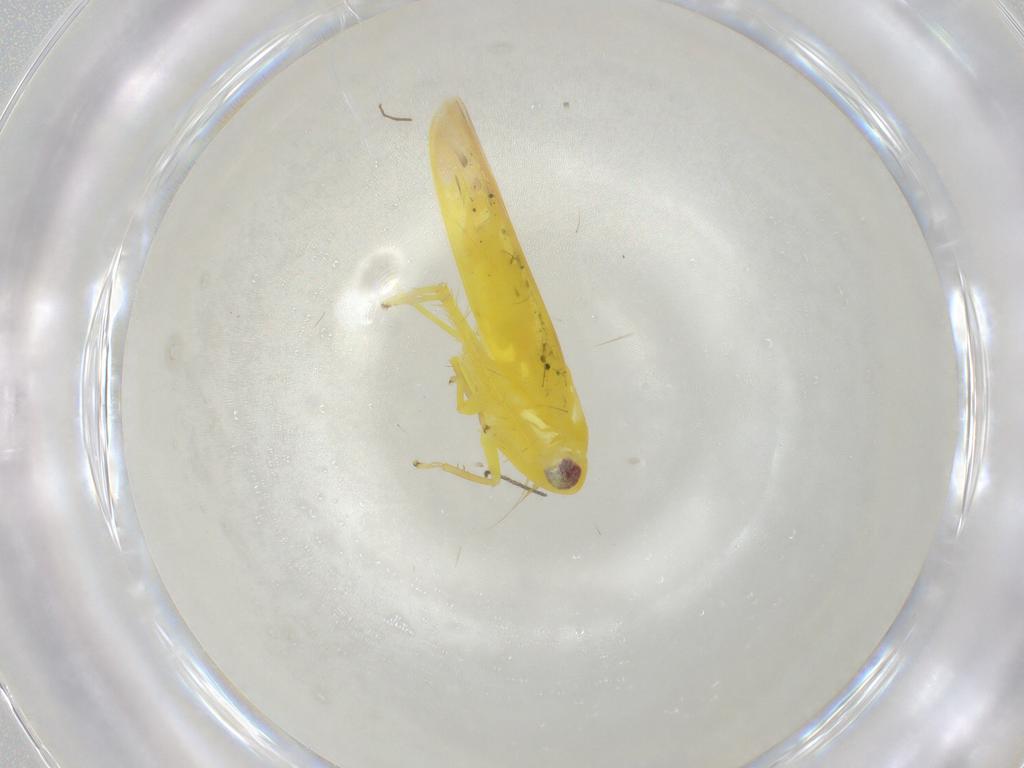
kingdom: Animalia
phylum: Arthropoda
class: Insecta
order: Hemiptera
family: Cicadellidae
